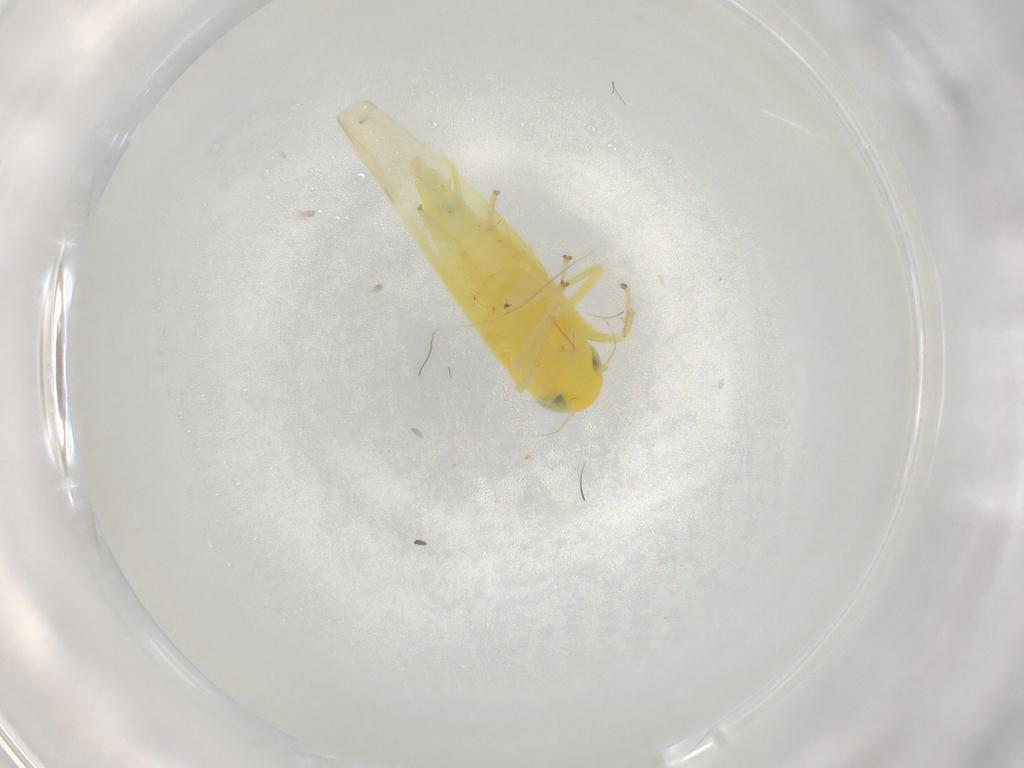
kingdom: Animalia
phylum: Arthropoda
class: Insecta
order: Hemiptera
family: Cicadellidae
